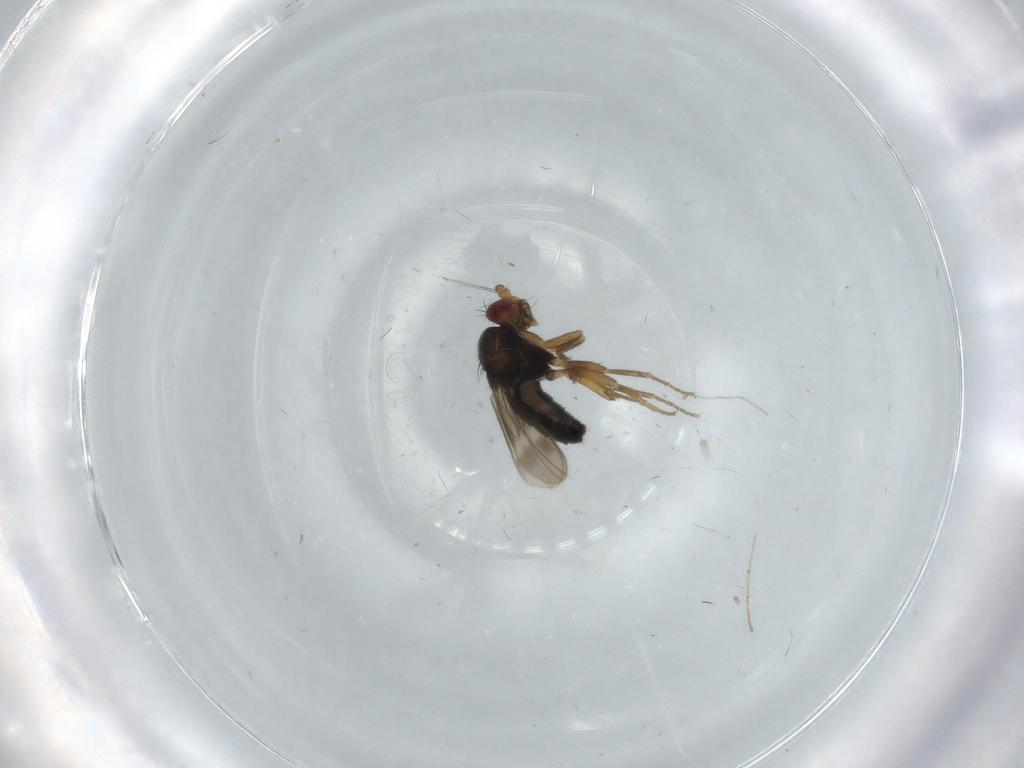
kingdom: Animalia
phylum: Arthropoda
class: Insecta
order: Diptera
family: Sphaeroceridae
